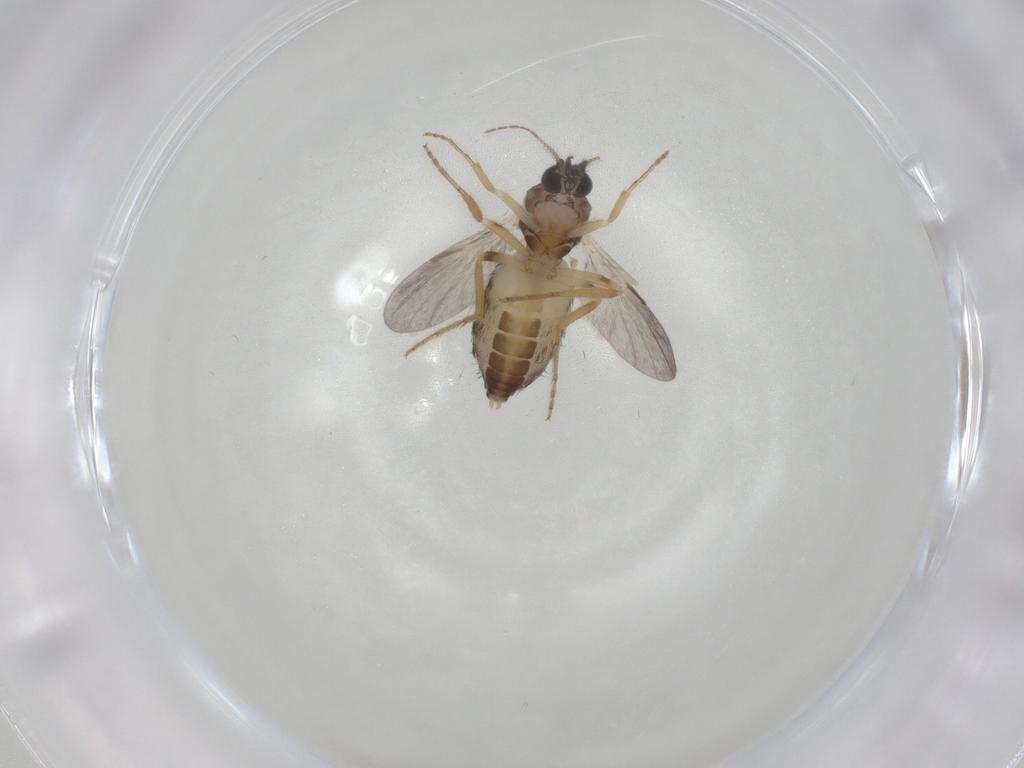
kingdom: Animalia
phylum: Arthropoda
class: Insecta
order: Diptera
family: Ceratopogonidae
